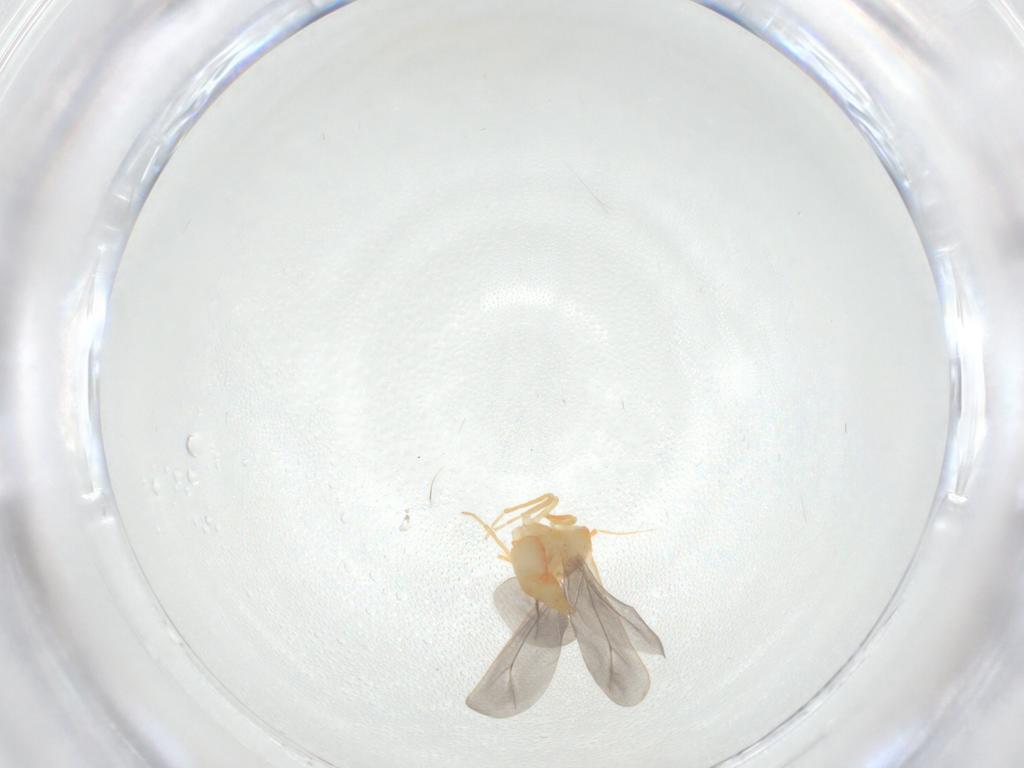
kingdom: Animalia
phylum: Arthropoda
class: Insecta
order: Hemiptera
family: Aleyrodidae
